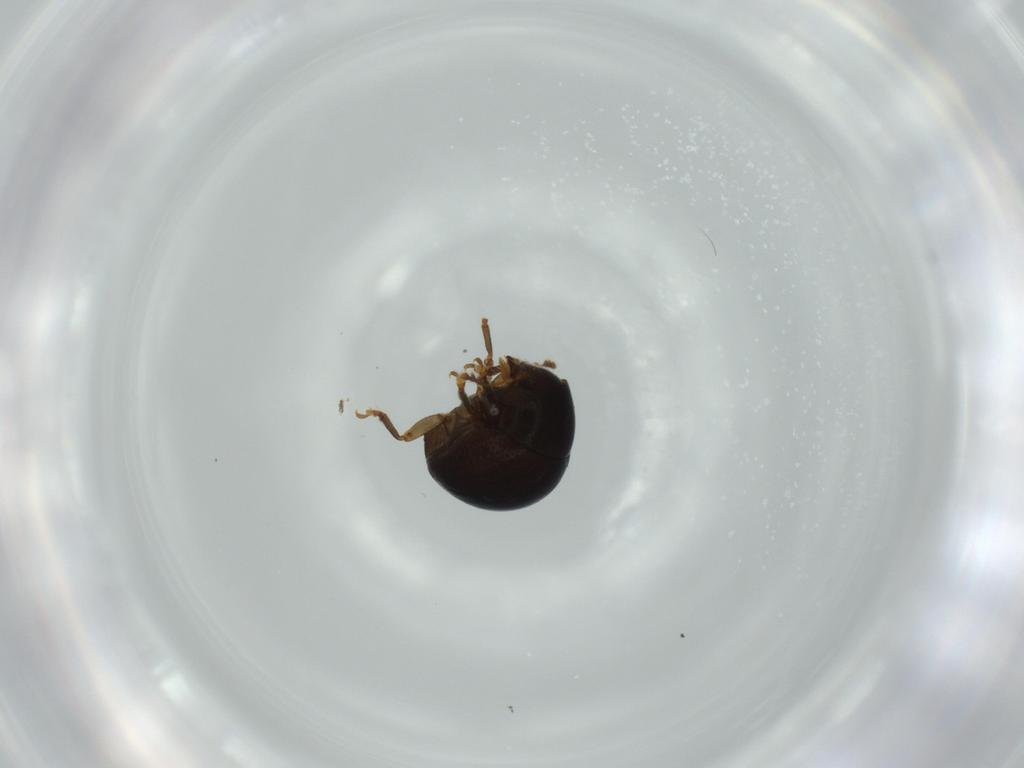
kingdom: Animalia
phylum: Arthropoda
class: Insecta
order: Coleoptera
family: Anthribidae
